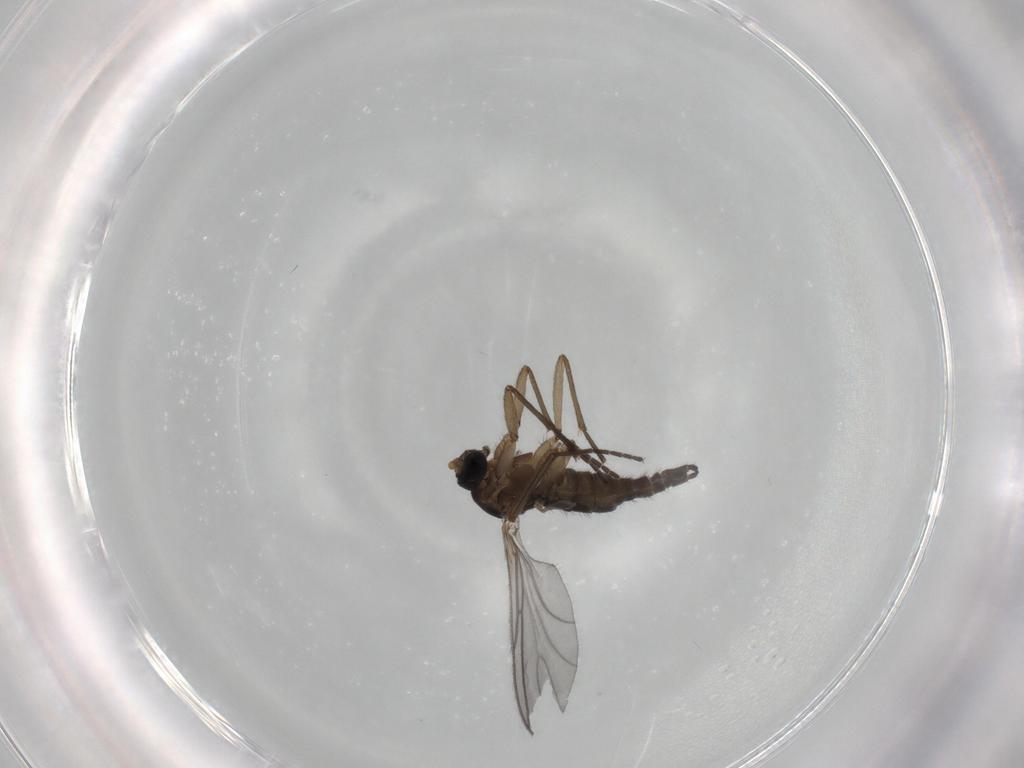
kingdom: Animalia
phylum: Arthropoda
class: Insecta
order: Diptera
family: Sciaridae
